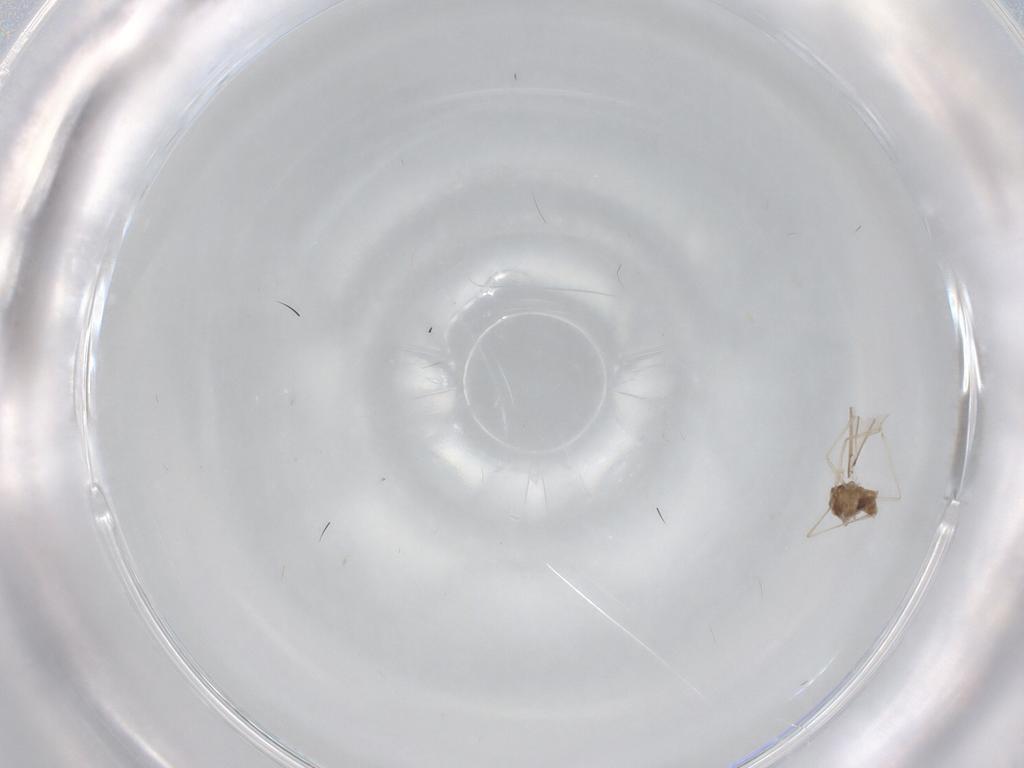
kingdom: Animalia
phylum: Arthropoda
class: Insecta
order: Diptera
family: Cecidomyiidae
